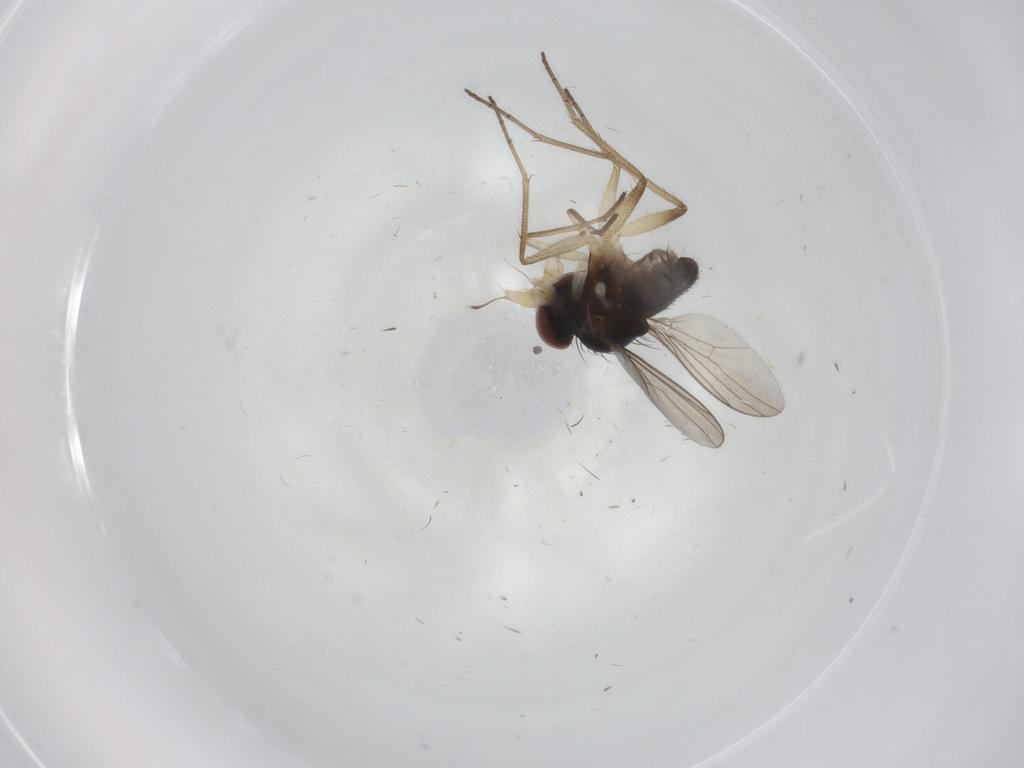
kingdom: Animalia
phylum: Arthropoda
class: Insecta
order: Diptera
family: Dolichopodidae
